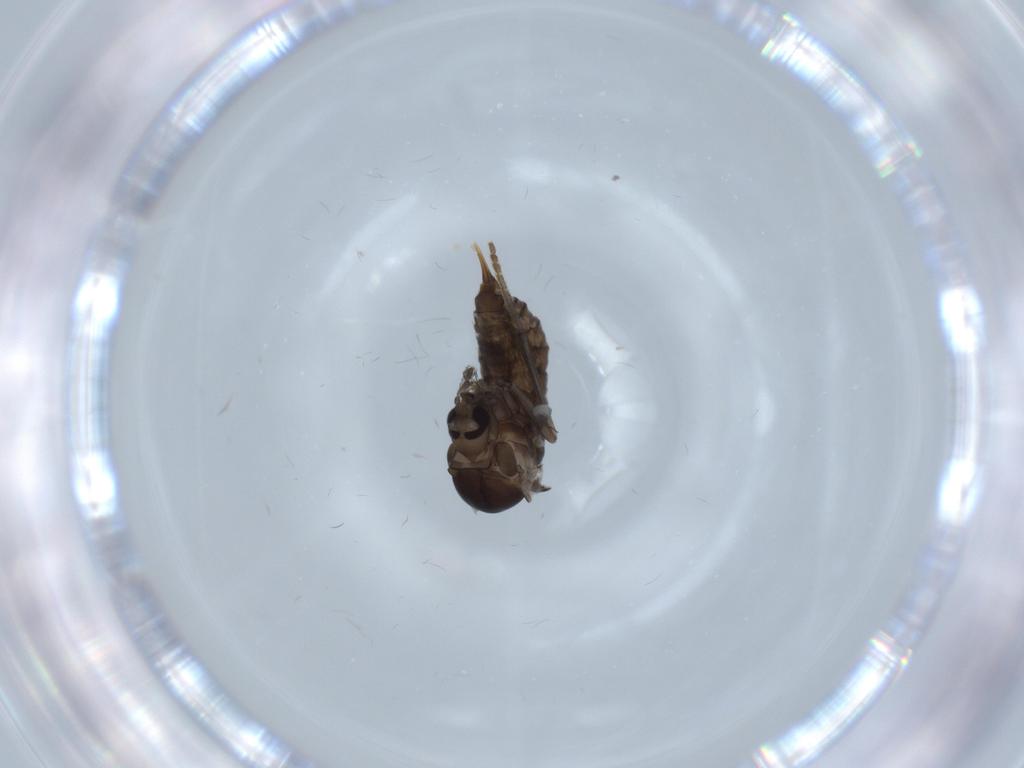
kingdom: Animalia
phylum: Arthropoda
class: Insecta
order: Diptera
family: Psychodidae
